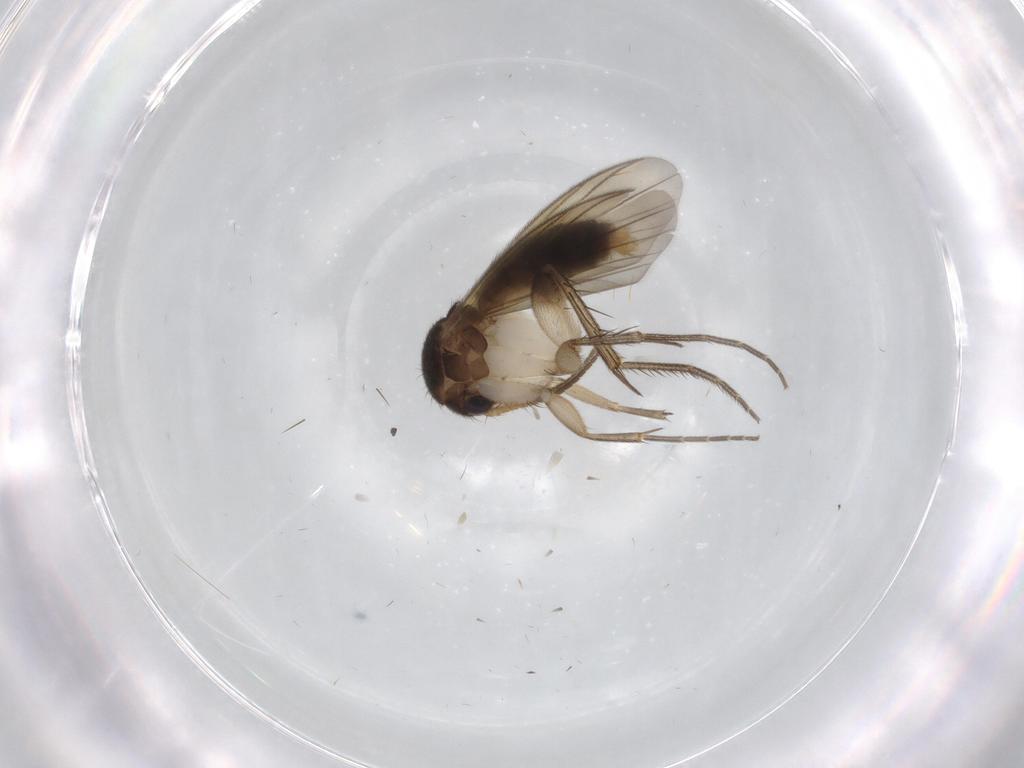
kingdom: Animalia
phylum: Arthropoda
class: Insecta
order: Diptera
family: Mycetophilidae
